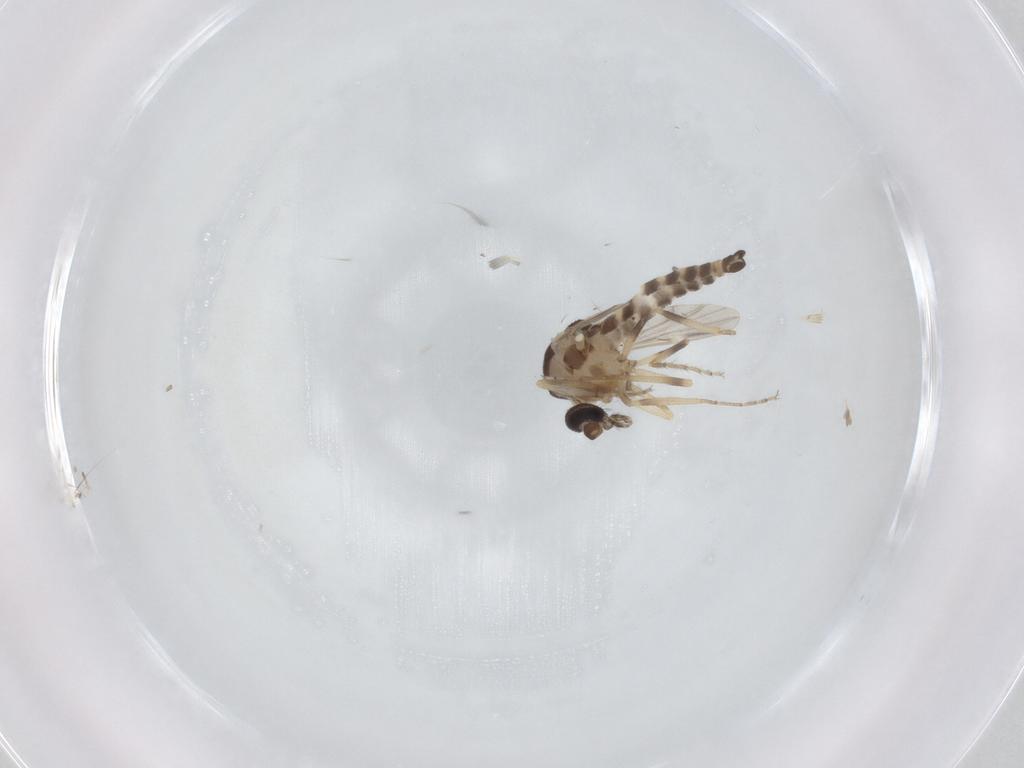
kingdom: Animalia
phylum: Arthropoda
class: Insecta
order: Diptera
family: Ceratopogonidae
